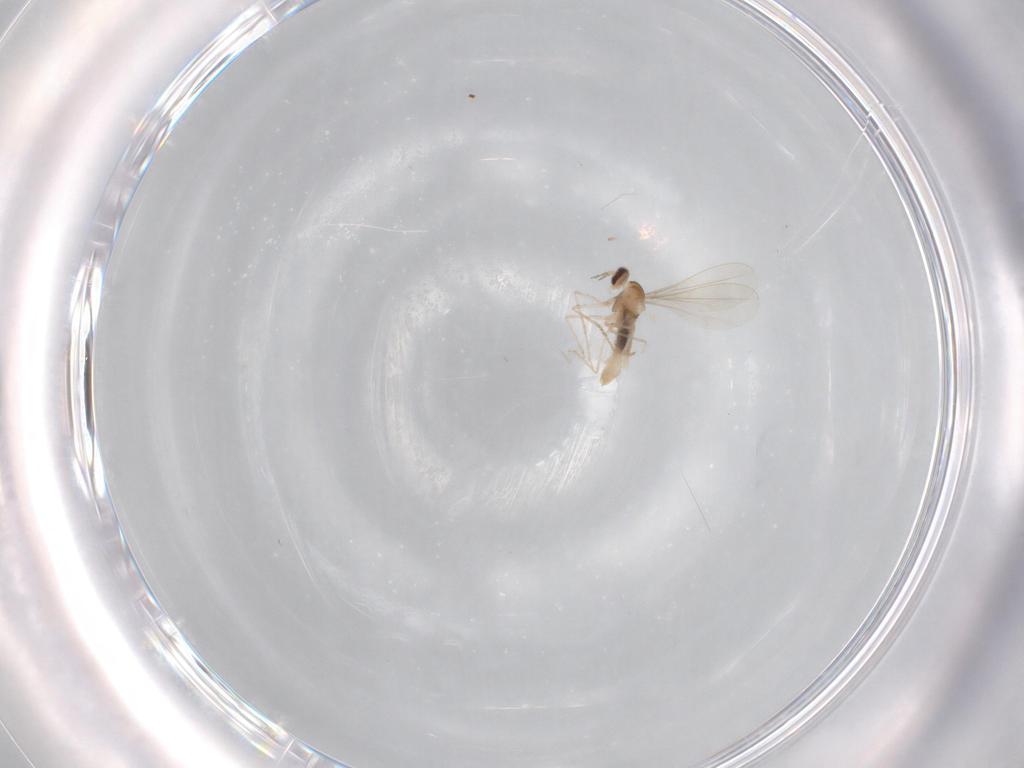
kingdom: Animalia
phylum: Arthropoda
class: Insecta
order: Diptera
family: Cecidomyiidae
